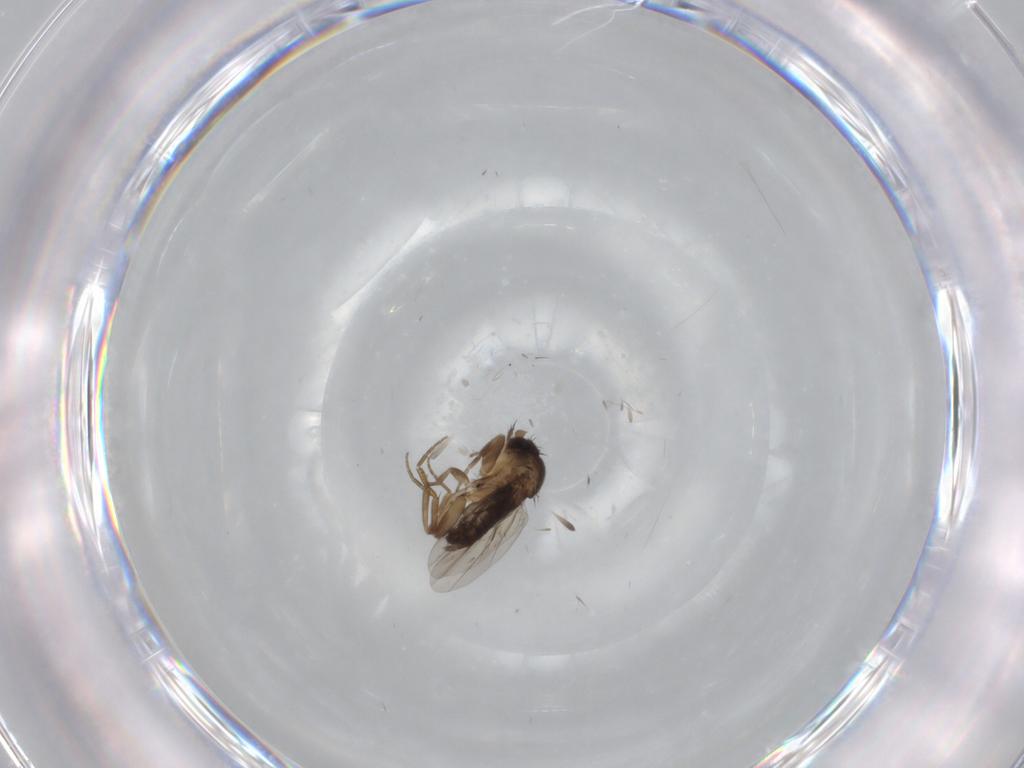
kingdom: Animalia
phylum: Arthropoda
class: Insecta
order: Diptera
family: Phoridae
